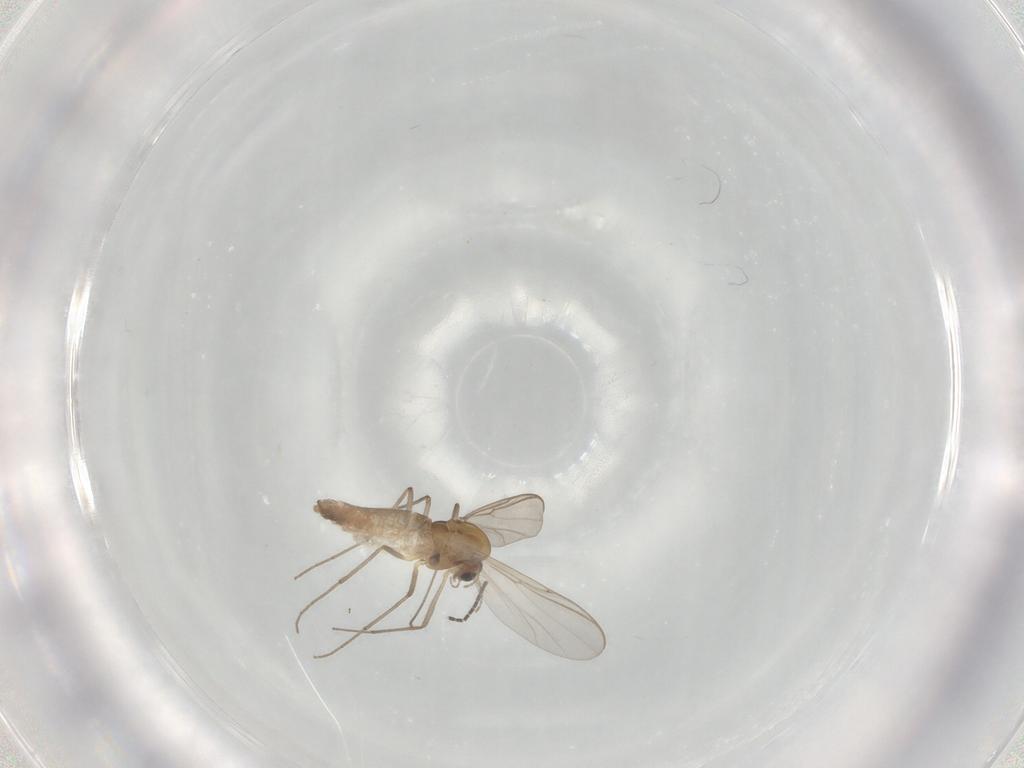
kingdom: Animalia
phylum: Arthropoda
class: Insecta
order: Diptera
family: Chironomidae
